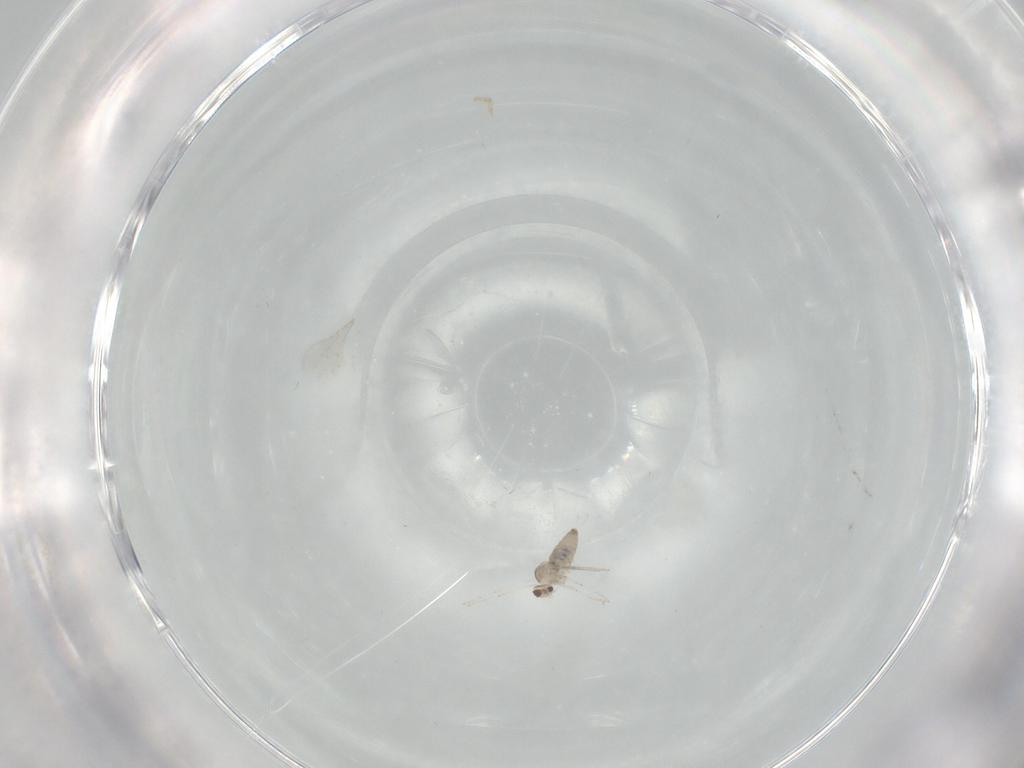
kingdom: Animalia
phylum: Arthropoda
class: Insecta
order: Diptera
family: Cecidomyiidae
